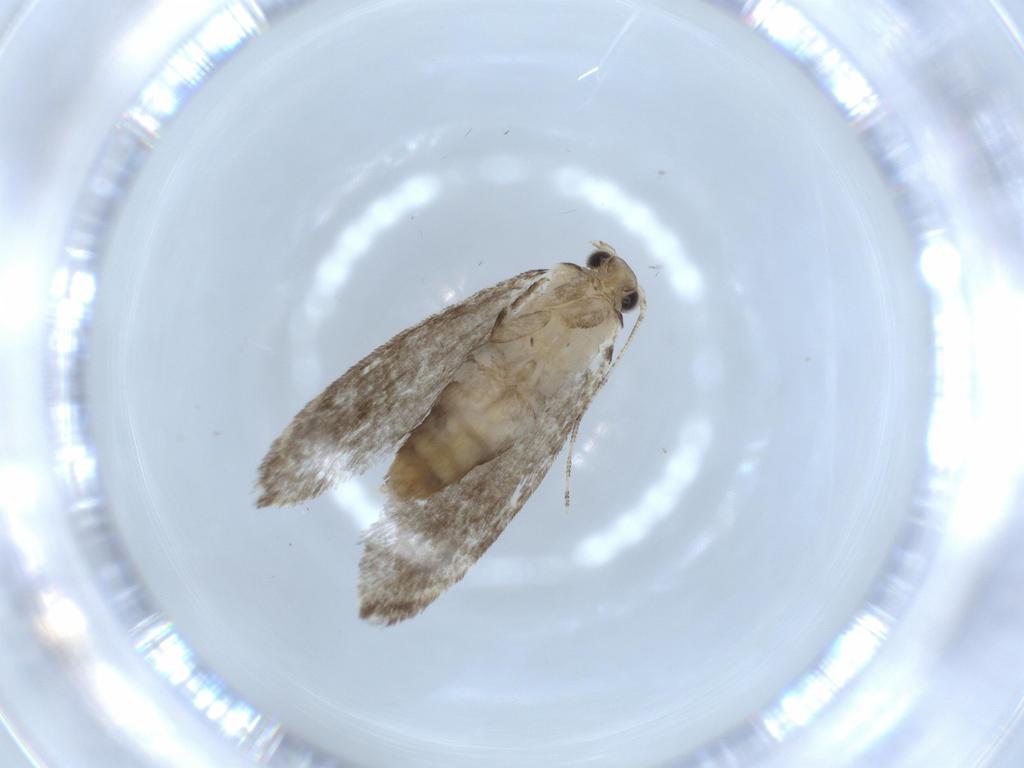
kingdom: Animalia
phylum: Arthropoda
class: Insecta
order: Lepidoptera
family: Tineidae
